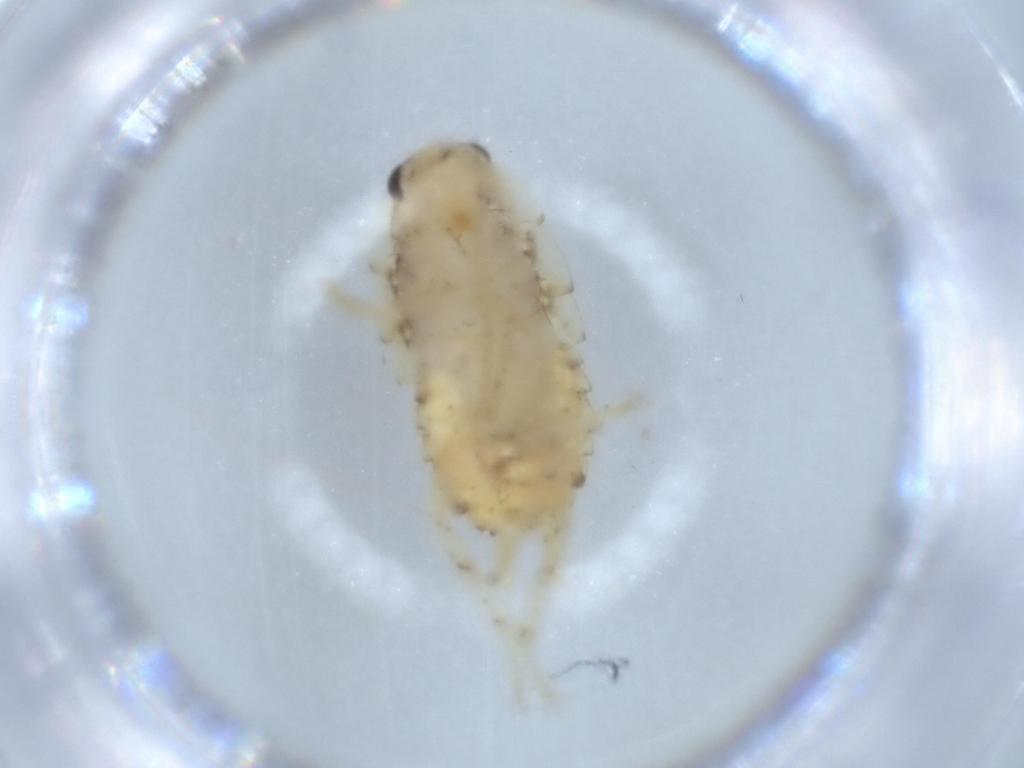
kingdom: Animalia
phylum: Arthropoda
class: Insecta
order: Blattodea
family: Ectobiidae
